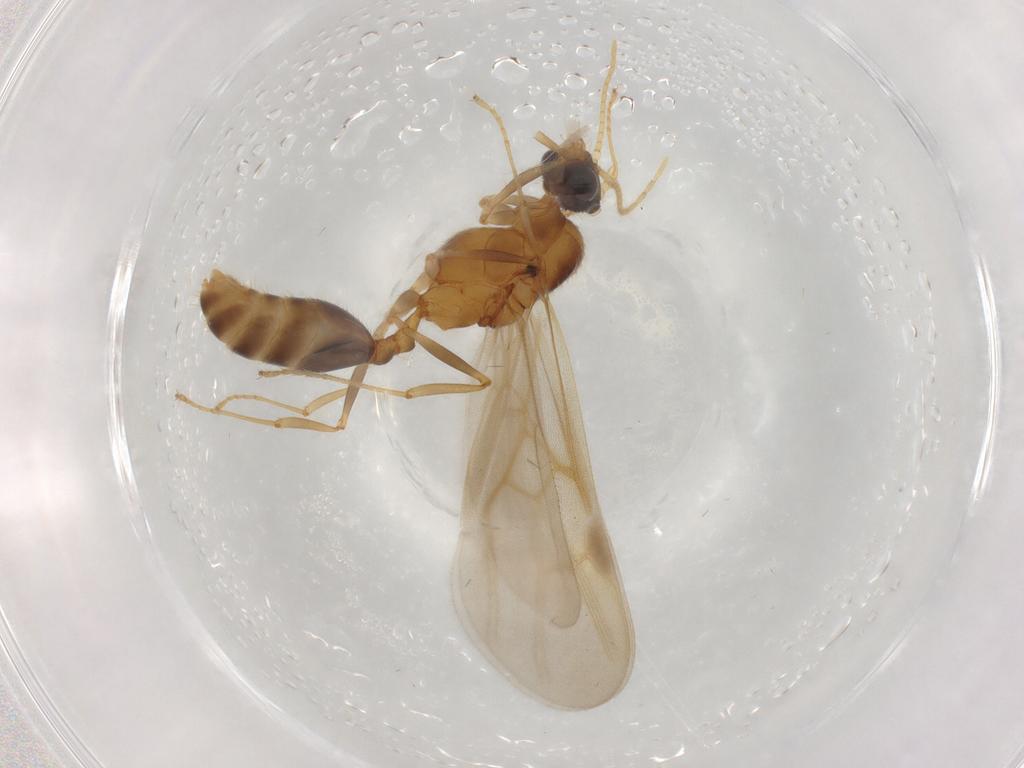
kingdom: Animalia
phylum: Arthropoda
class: Insecta
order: Hymenoptera
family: Formicidae
